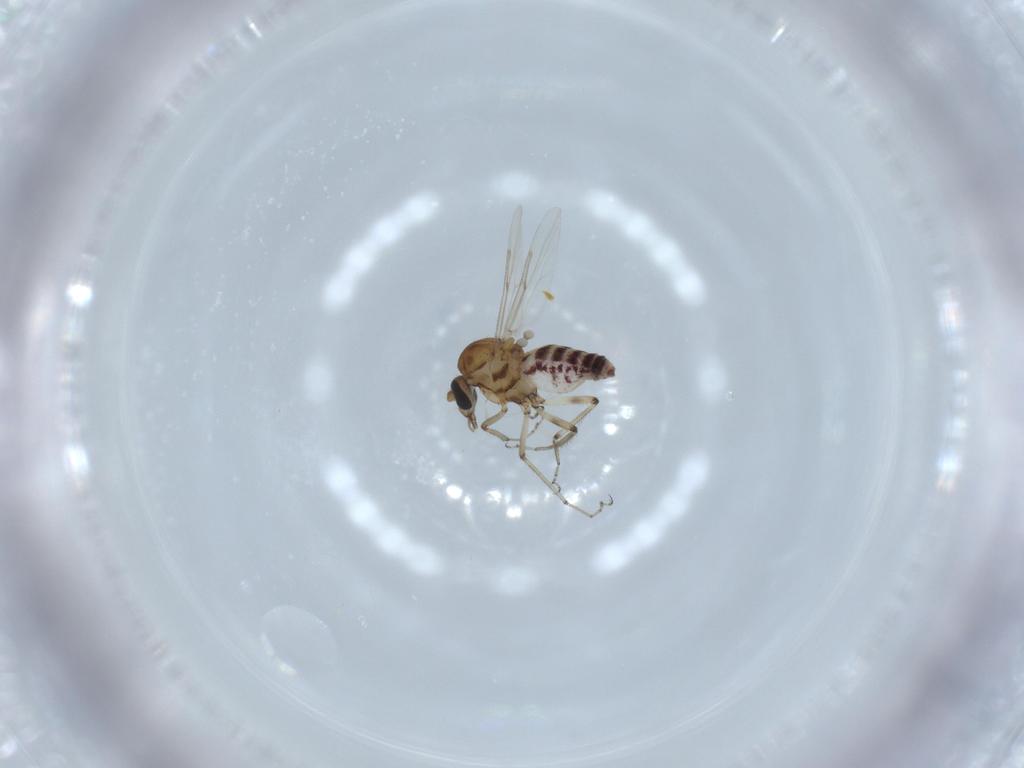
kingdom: Animalia
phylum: Arthropoda
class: Insecta
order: Diptera
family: Ceratopogonidae
